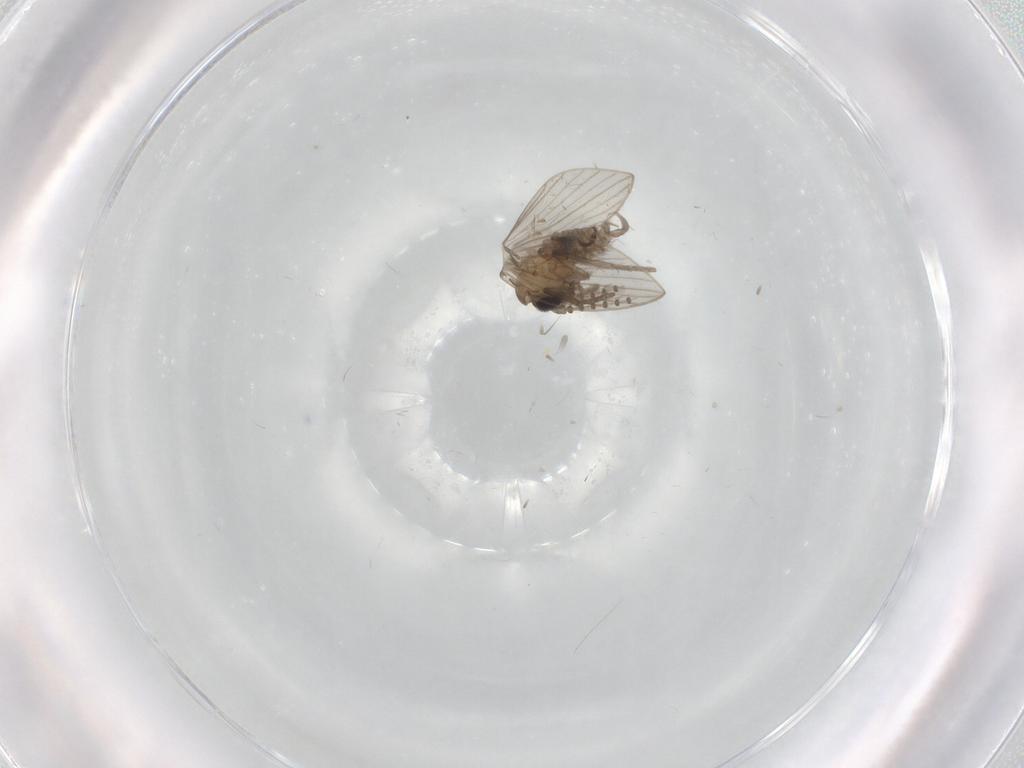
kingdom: Animalia
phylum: Arthropoda
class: Insecta
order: Diptera
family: Psychodidae
